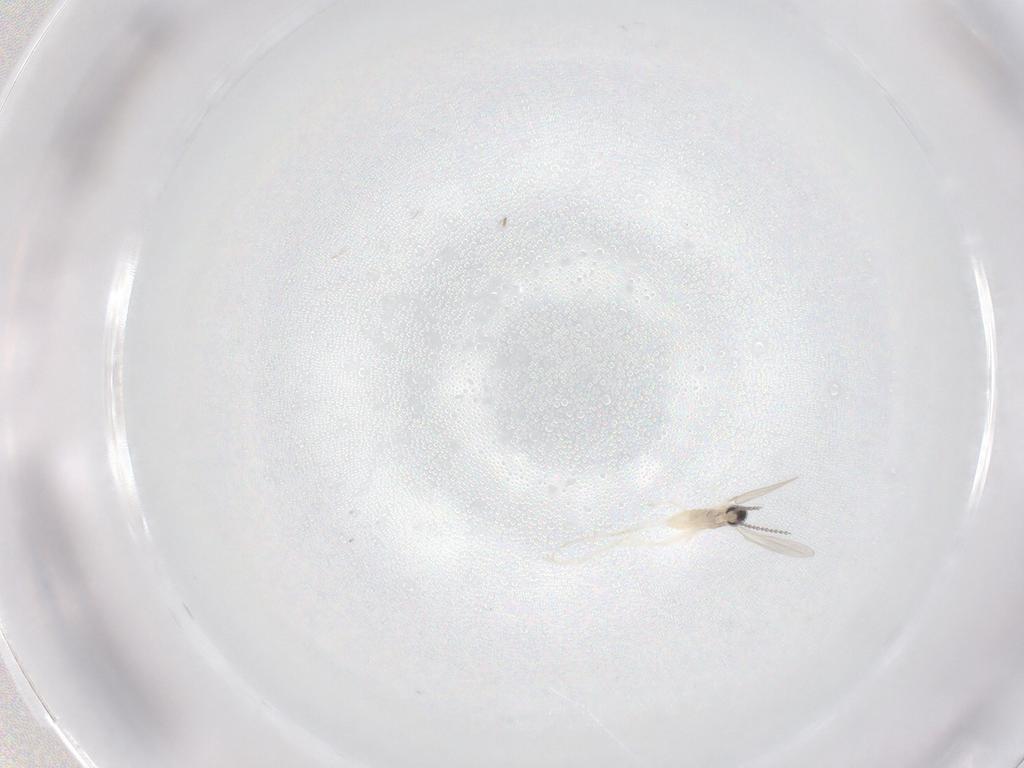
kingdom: Animalia
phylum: Arthropoda
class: Insecta
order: Diptera
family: Cecidomyiidae
